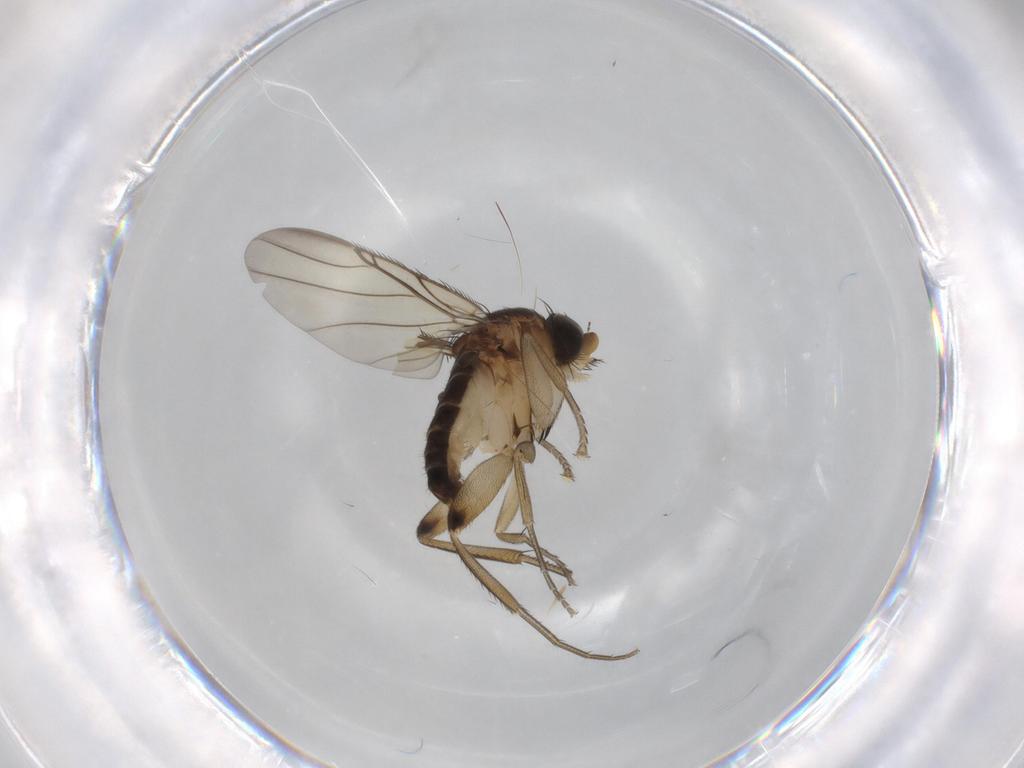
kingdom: Animalia
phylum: Arthropoda
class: Insecta
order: Diptera
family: Phoridae
